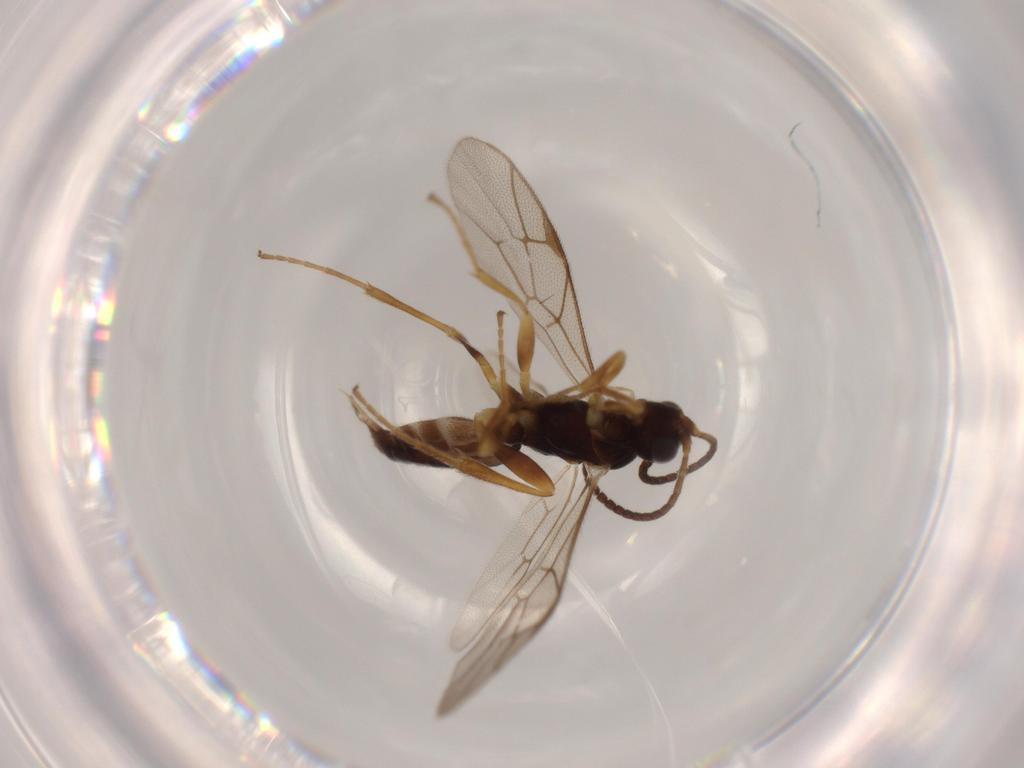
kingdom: Animalia
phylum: Arthropoda
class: Insecta
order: Hymenoptera
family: Ichneumonidae
